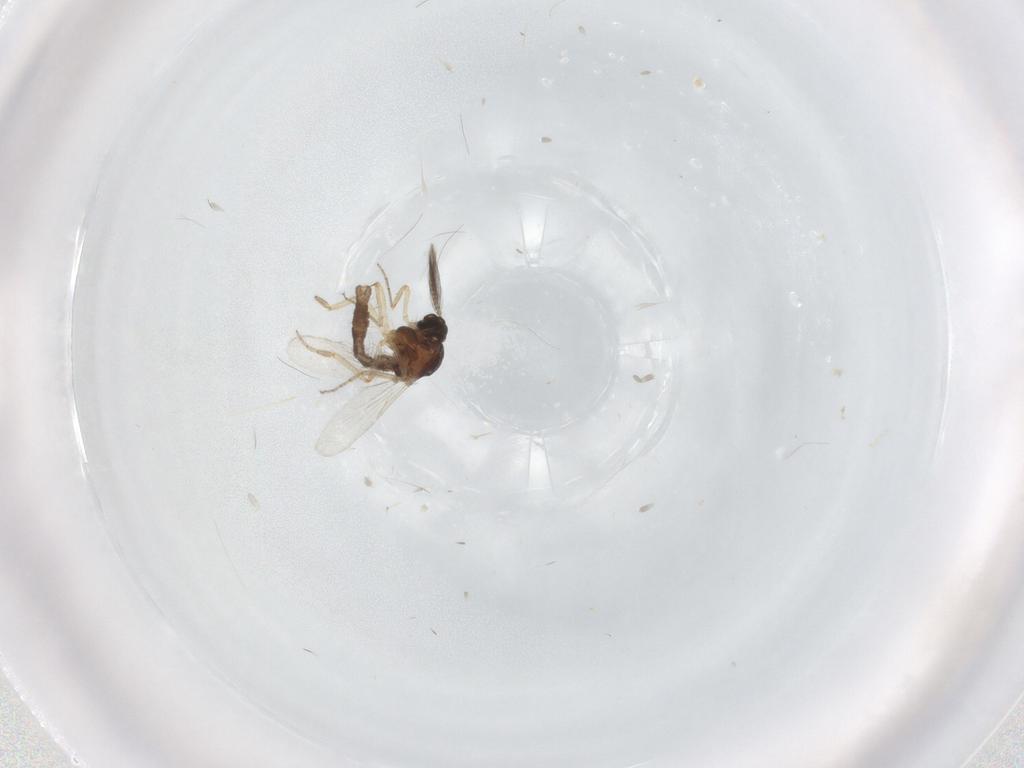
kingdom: Animalia
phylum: Arthropoda
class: Insecta
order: Diptera
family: Ceratopogonidae
